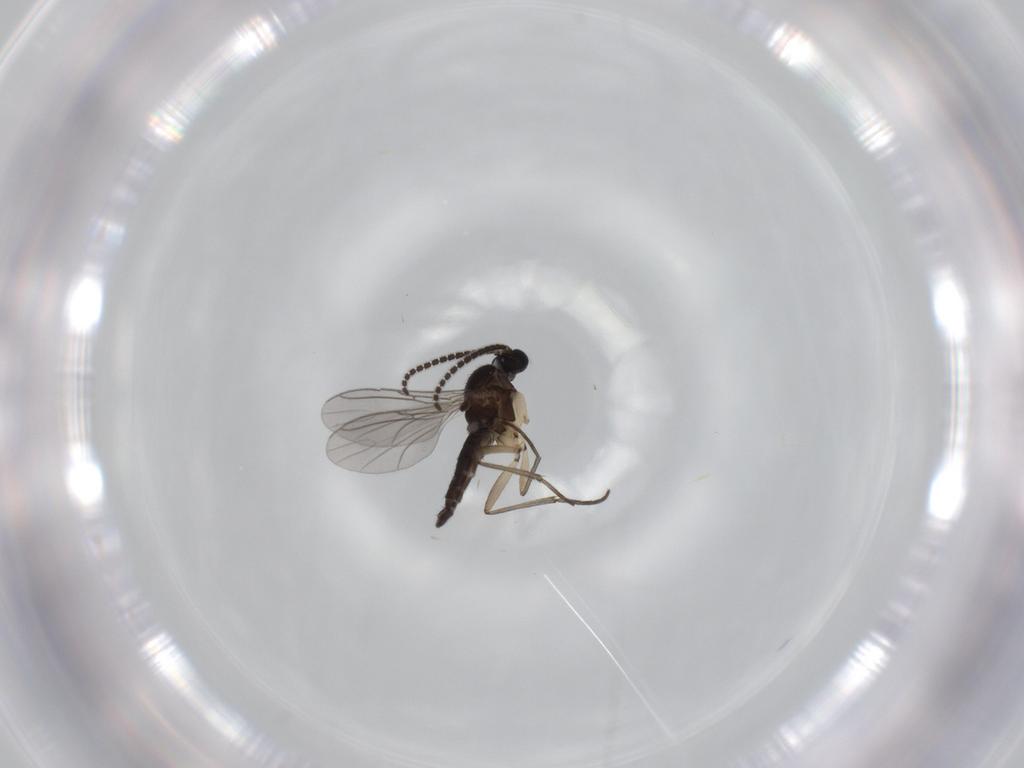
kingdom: Animalia
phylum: Arthropoda
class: Insecta
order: Diptera
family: Sciaridae
